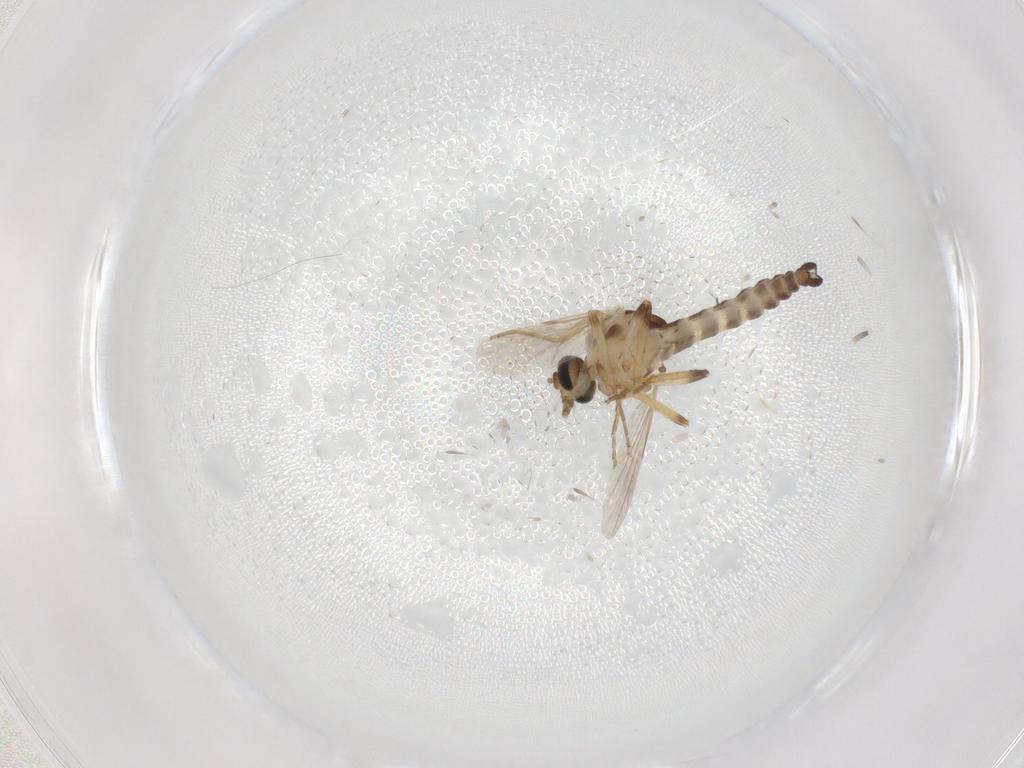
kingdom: Animalia
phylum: Arthropoda
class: Insecta
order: Diptera
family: Ceratopogonidae
